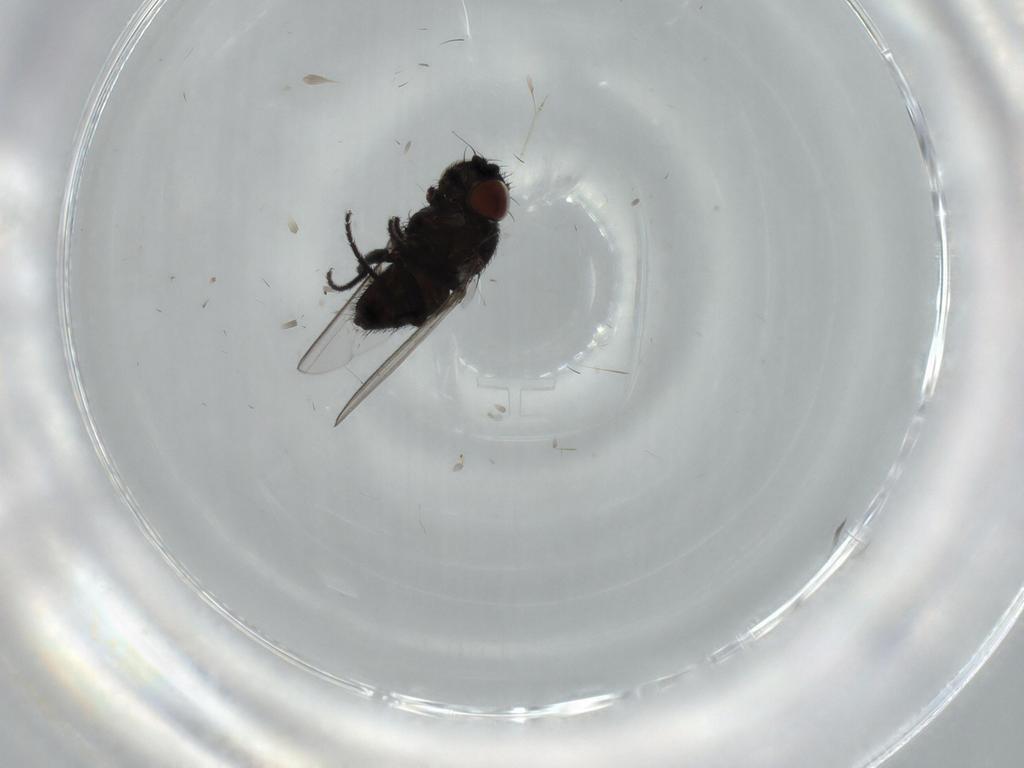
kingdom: Animalia
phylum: Arthropoda
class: Insecta
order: Diptera
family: Milichiidae
